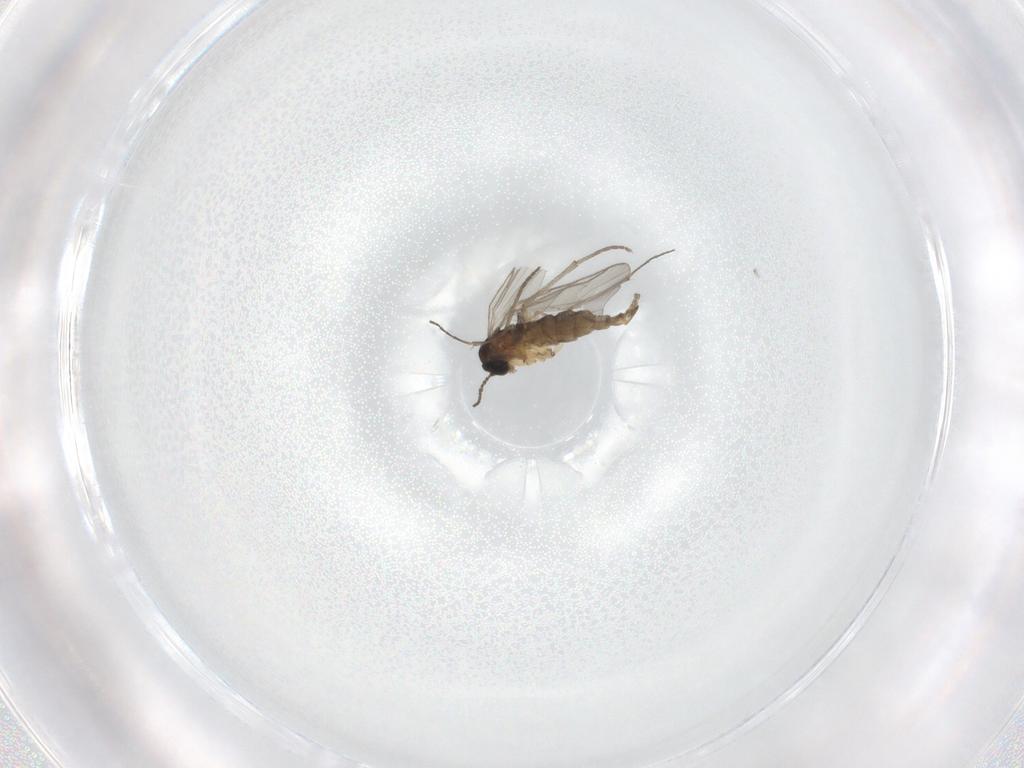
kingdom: Animalia
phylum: Arthropoda
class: Insecta
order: Diptera
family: Sciaridae
